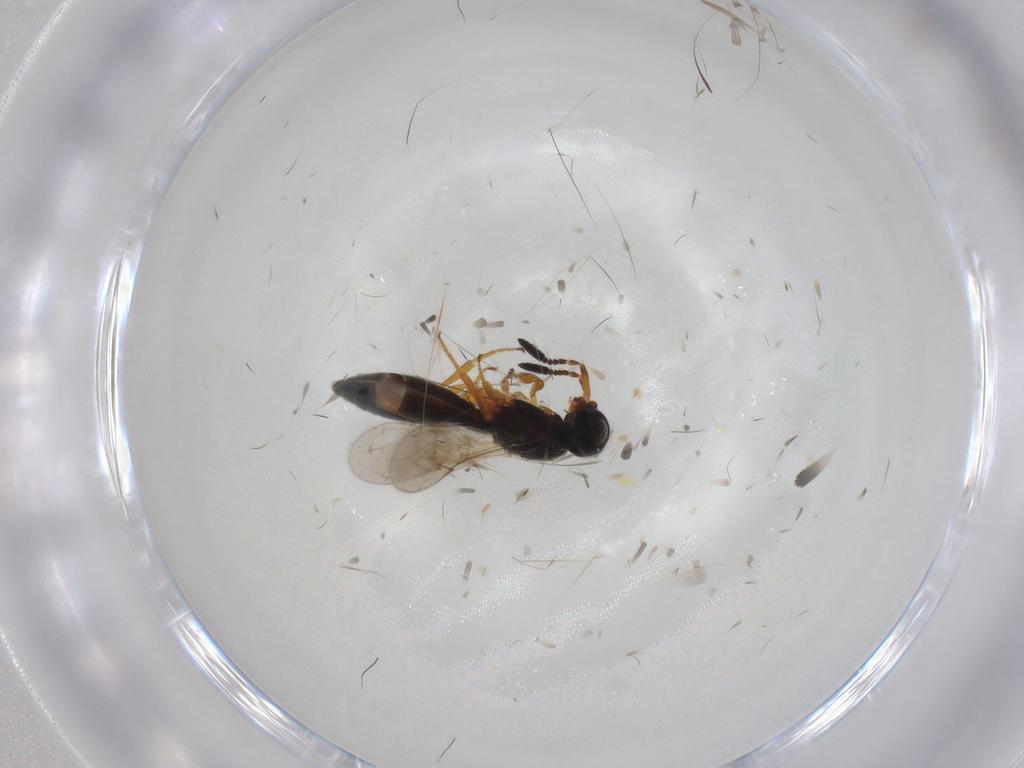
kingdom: Animalia
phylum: Arthropoda
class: Insecta
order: Hymenoptera
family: Scelionidae
